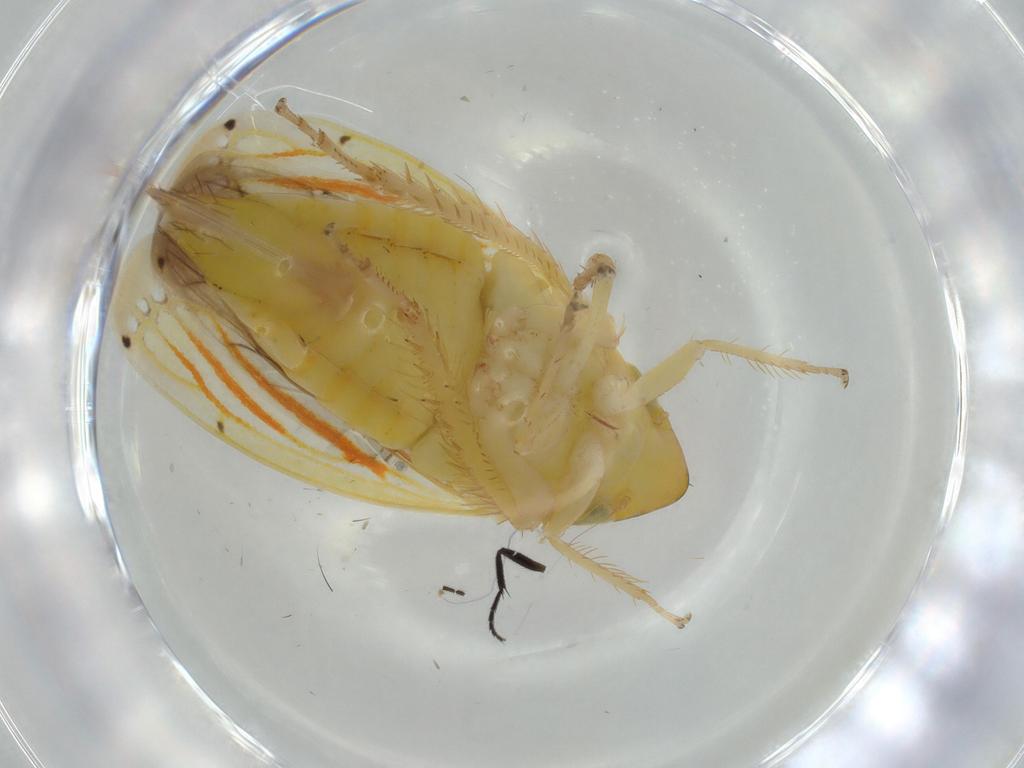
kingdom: Animalia
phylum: Arthropoda
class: Insecta
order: Hemiptera
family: Cicadellidae
